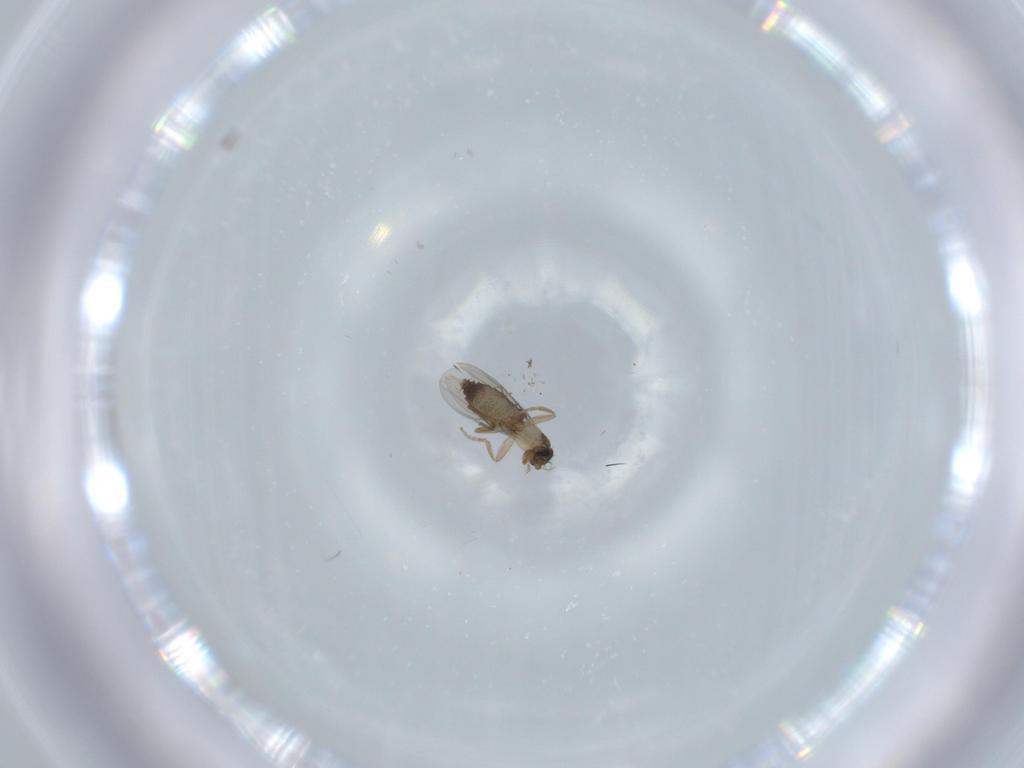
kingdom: Animalia
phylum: Arthropoda
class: Insecta
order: Diptera
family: Phoridae
